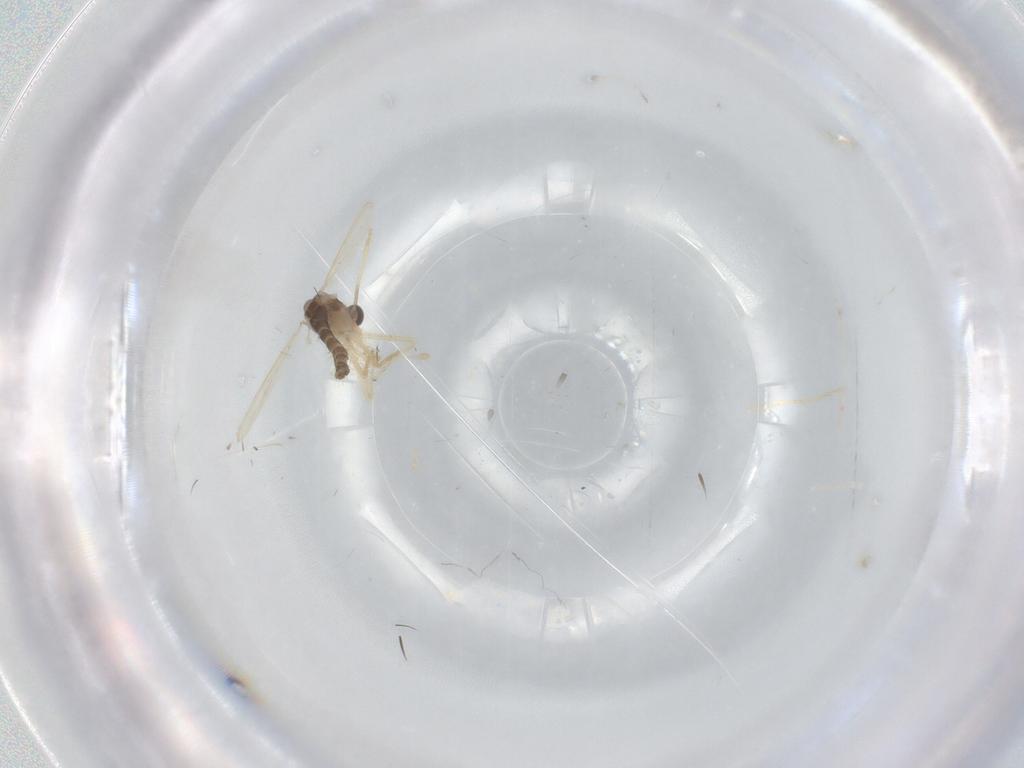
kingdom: Animalia
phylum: Arthropoda
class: Insecta
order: Diptera
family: Chironomidae
